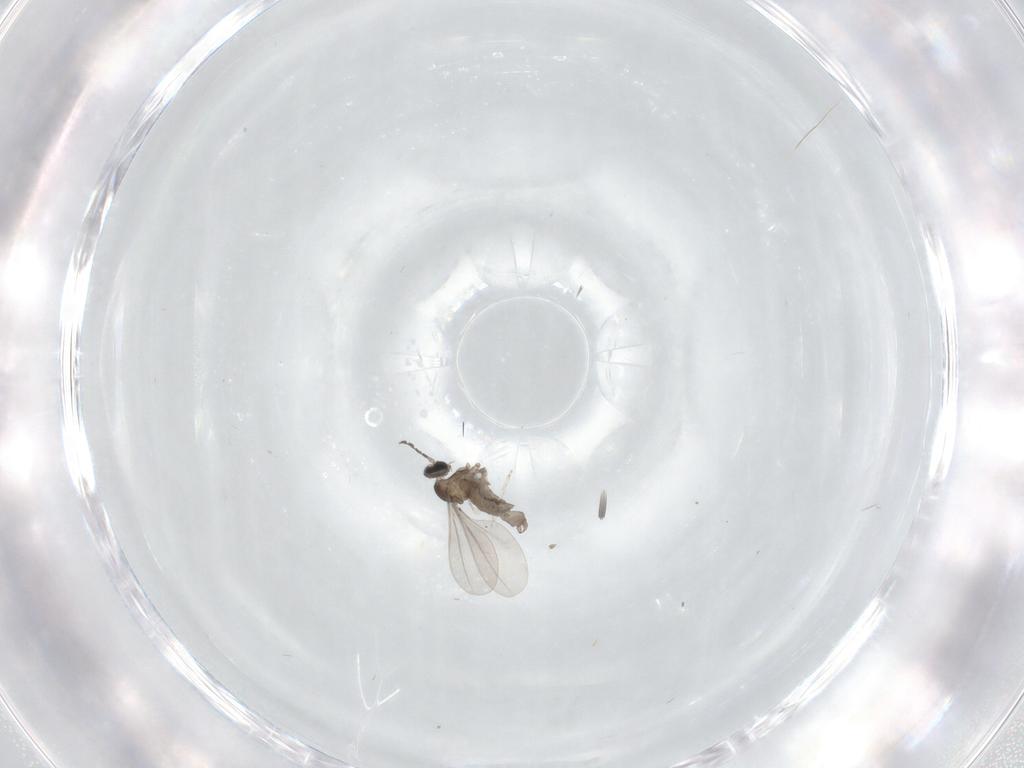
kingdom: Animalia
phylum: Arthropoda
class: Insecta
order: Diptera
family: Cecidomyiidae
